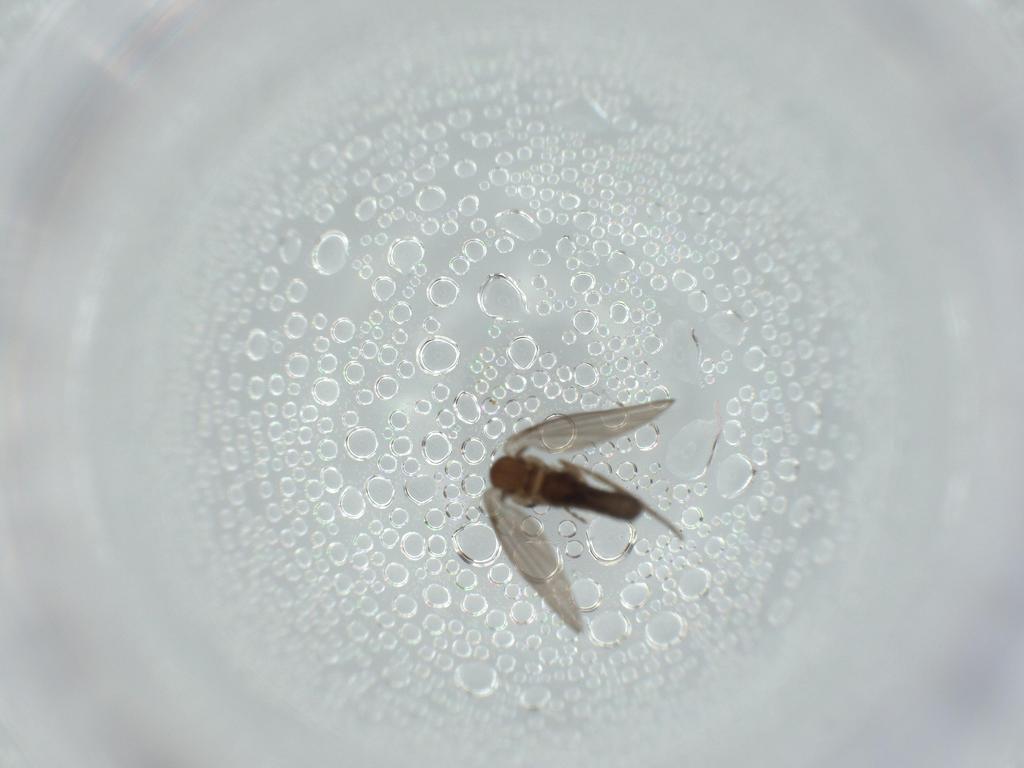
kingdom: Animalia
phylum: Arthropoda
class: Insecta
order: Diptera
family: Psychodidae
